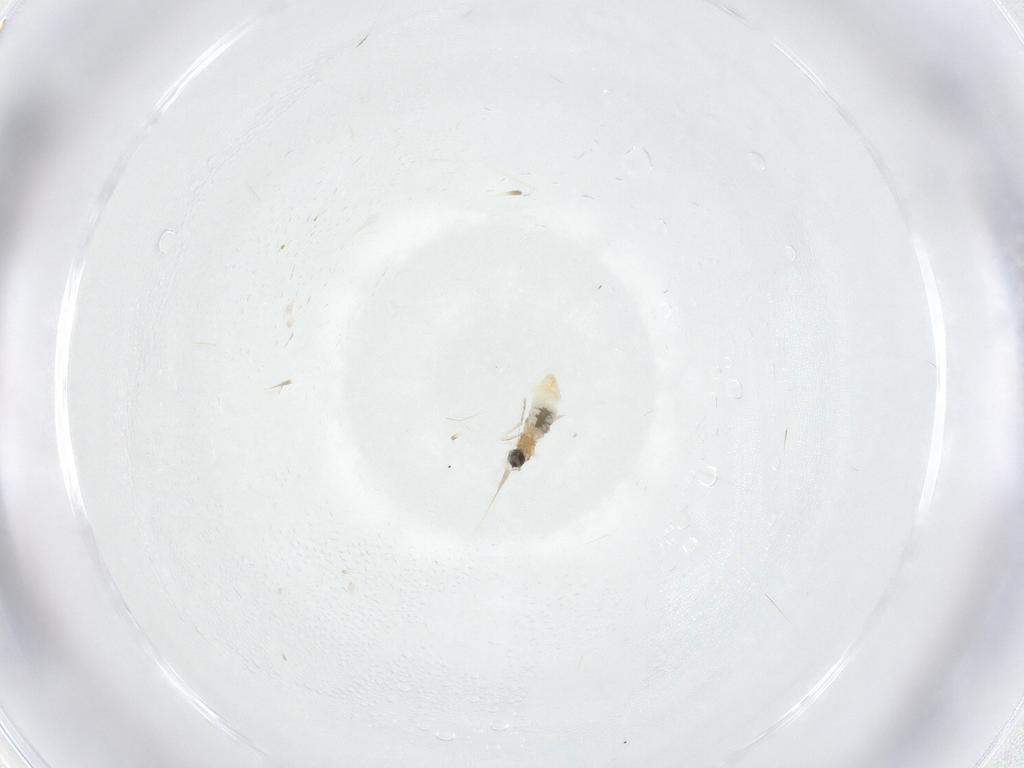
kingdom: Animalia
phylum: Arthropoda
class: Insecta
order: Diptera
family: Cecidomyiidae
